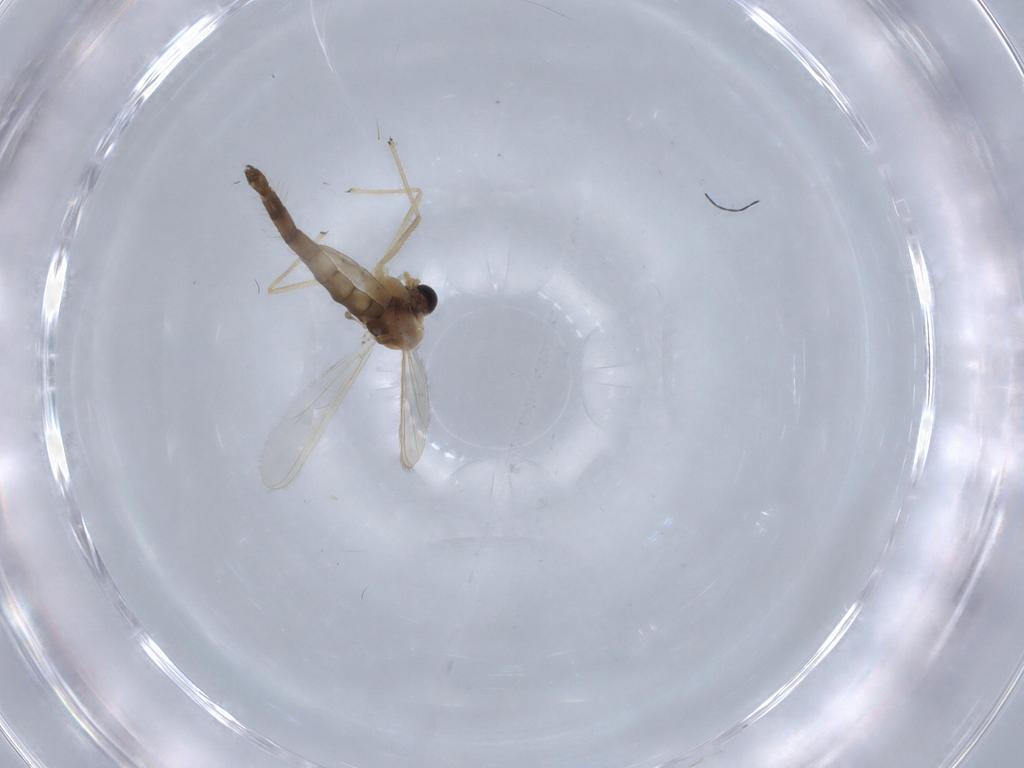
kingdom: Animalia
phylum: Arthropoda
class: Insecta
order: Diptera
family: Chironomidae
